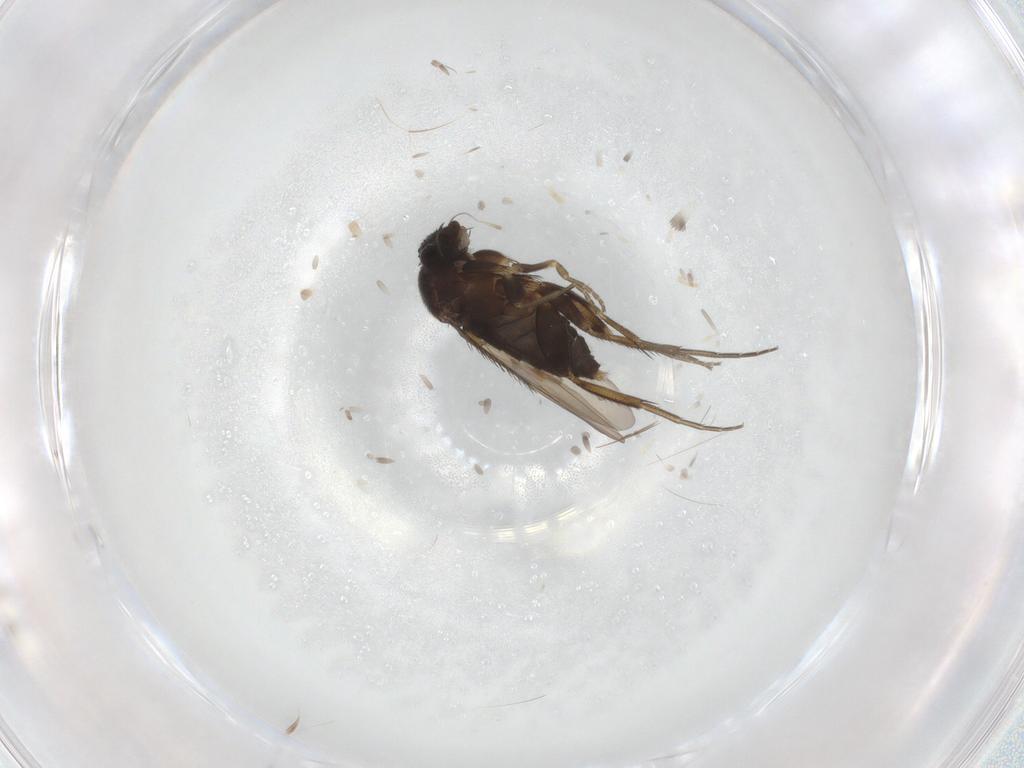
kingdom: Animalia
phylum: Arthropoda
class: Insecta
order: Diptera
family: Phoridae
